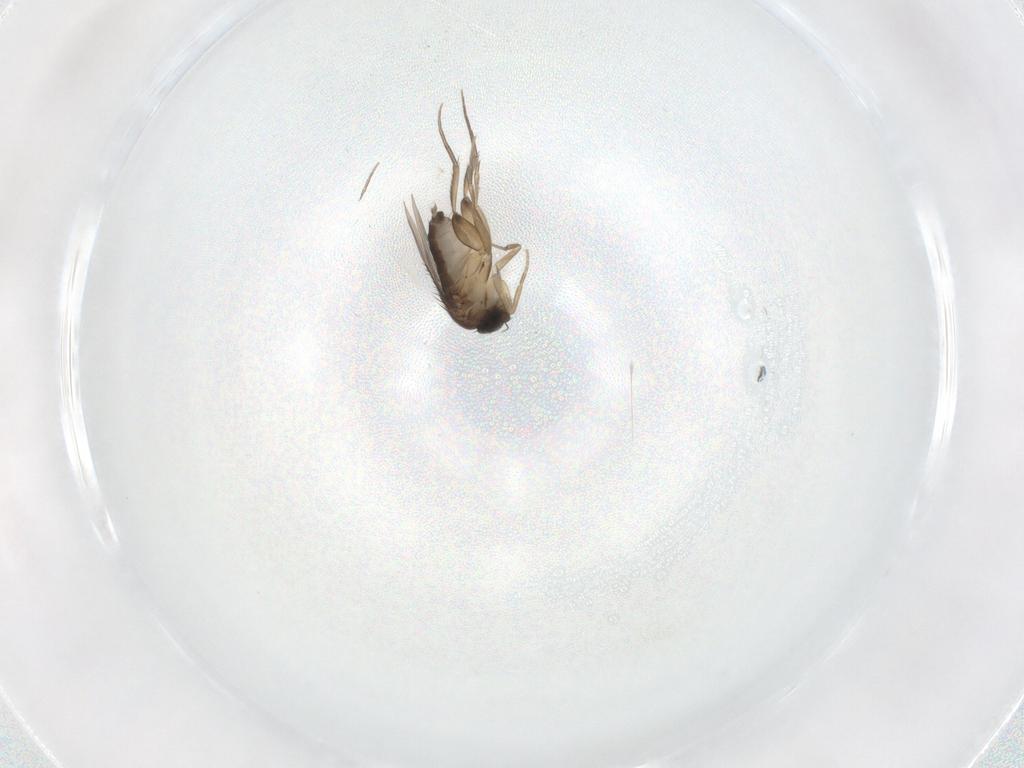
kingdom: Animalia
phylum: Arthropoda
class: Insecta
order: Diptera
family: Phoridae
